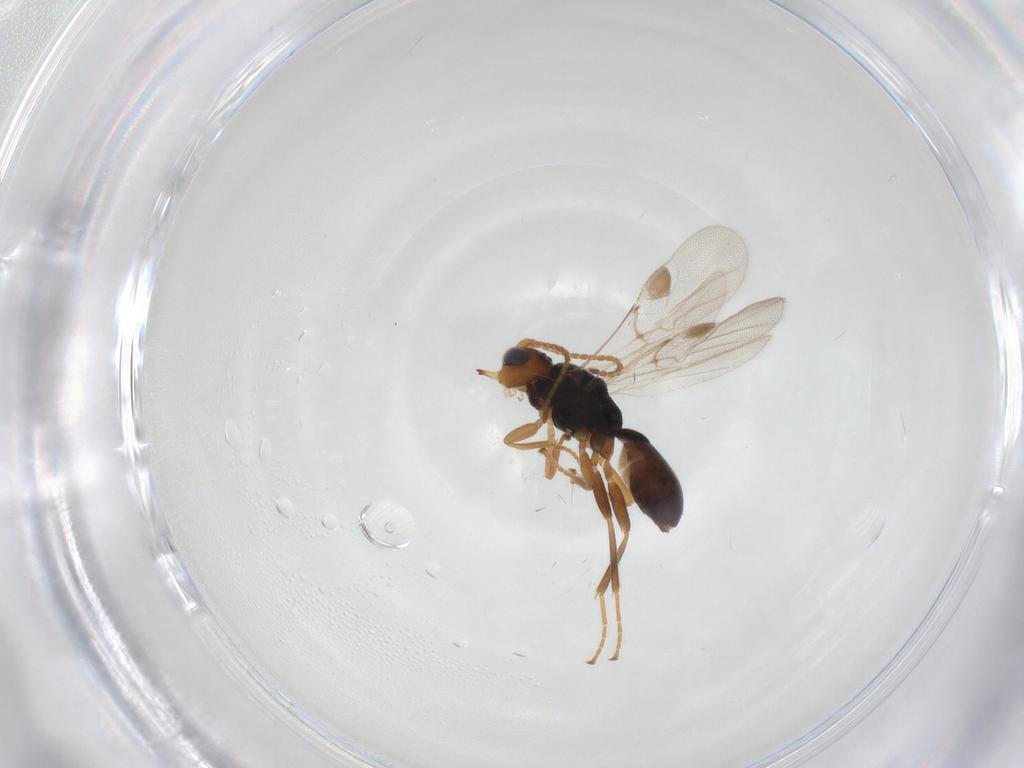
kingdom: Animalia
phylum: Arthropoda
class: Insecta
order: Hymenoptera
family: Braconidae
